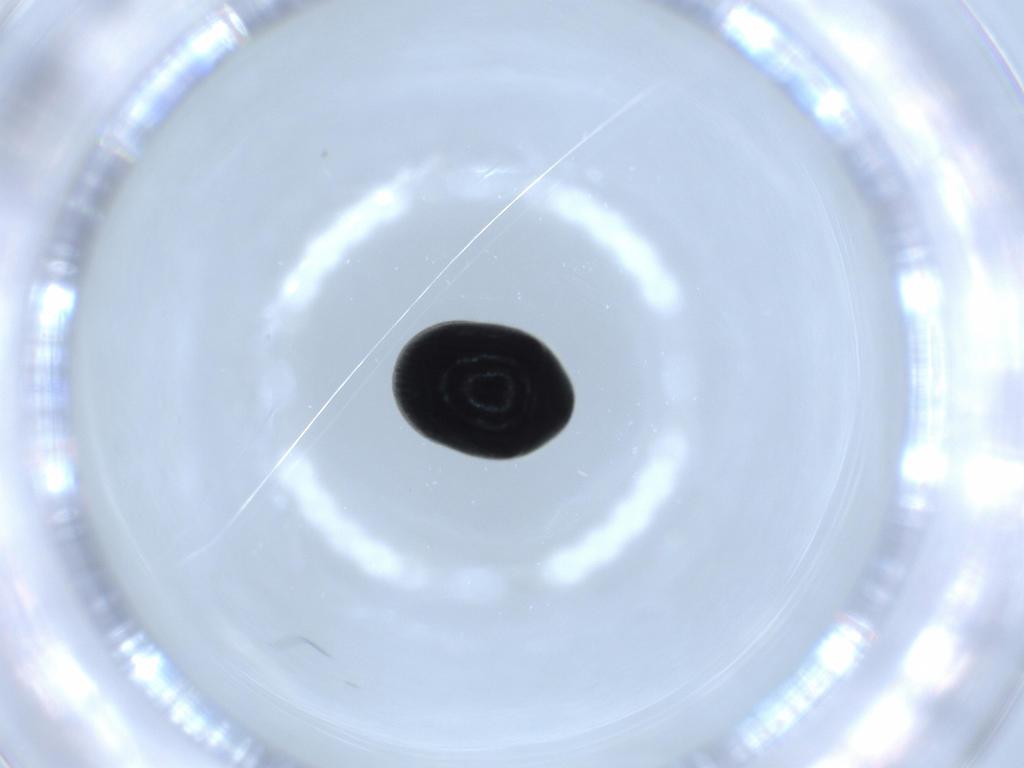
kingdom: Animalia
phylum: Arthropoda
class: Insecta
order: Coleoptera
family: Ptinidae
